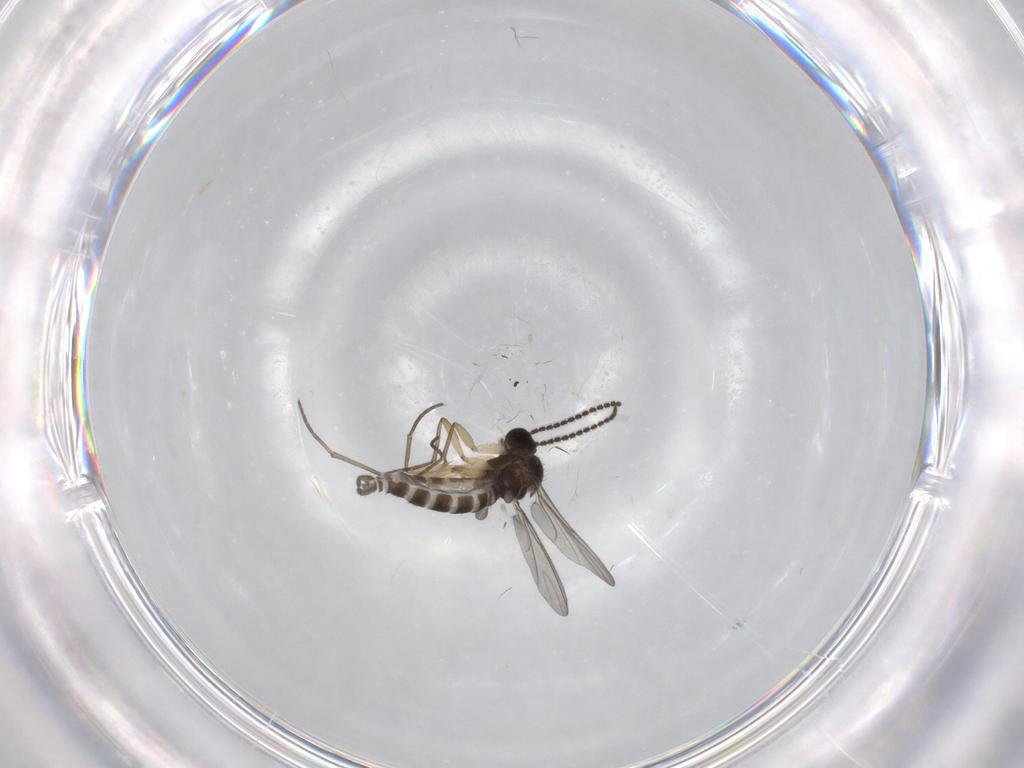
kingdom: Animalia
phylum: Arthropoda
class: Insecta
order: Diptera
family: Sciaridae
